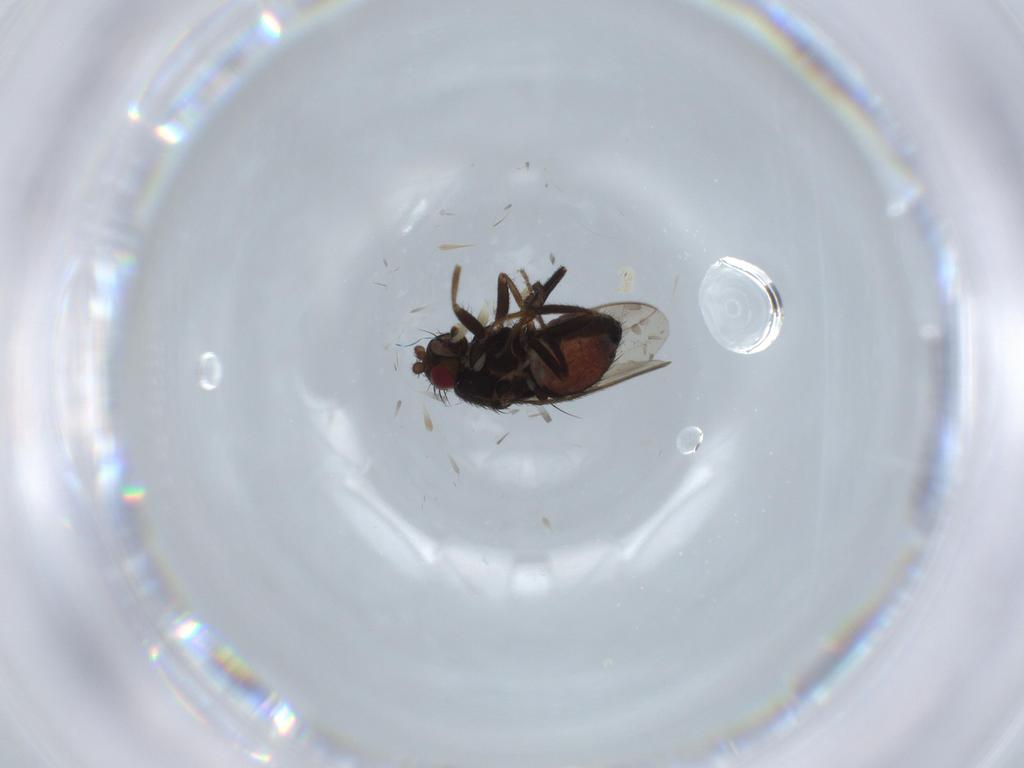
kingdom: Animalia
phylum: Arthropoda
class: Insecta
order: Diptera
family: Limoniidae
